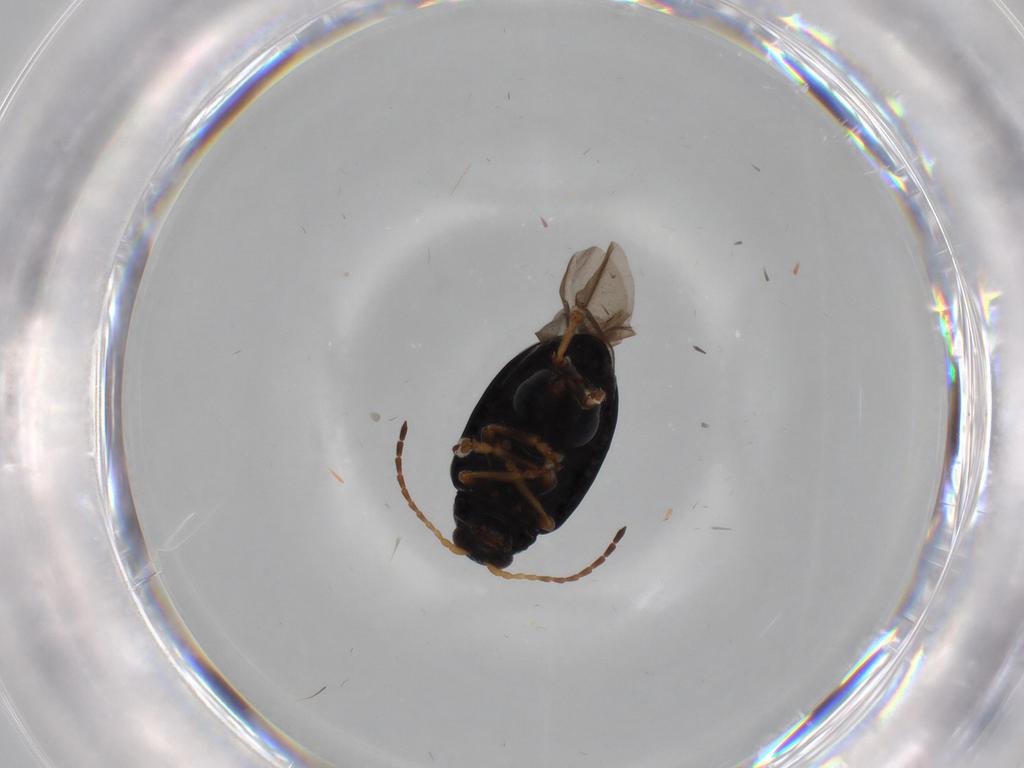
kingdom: Animalia
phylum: Arthropoda
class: Insecta
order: Coleoptera
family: Chrysomelidae
